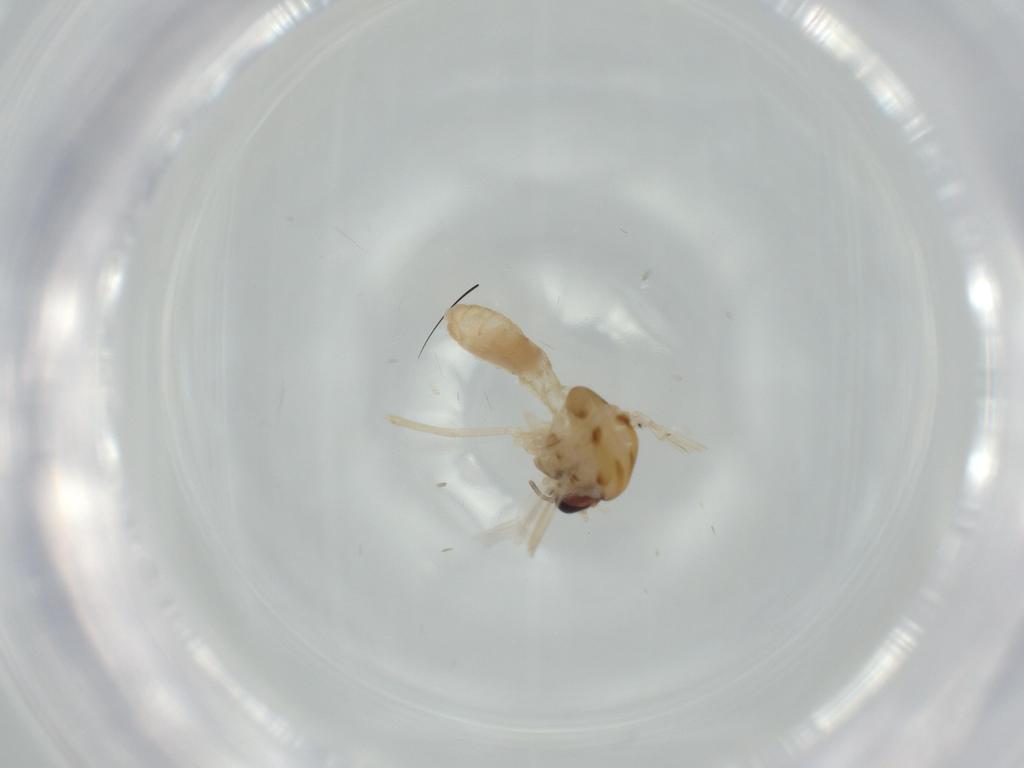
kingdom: Animalia
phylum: Arthropoda
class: Insecta
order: Diptera
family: Chironomidae
